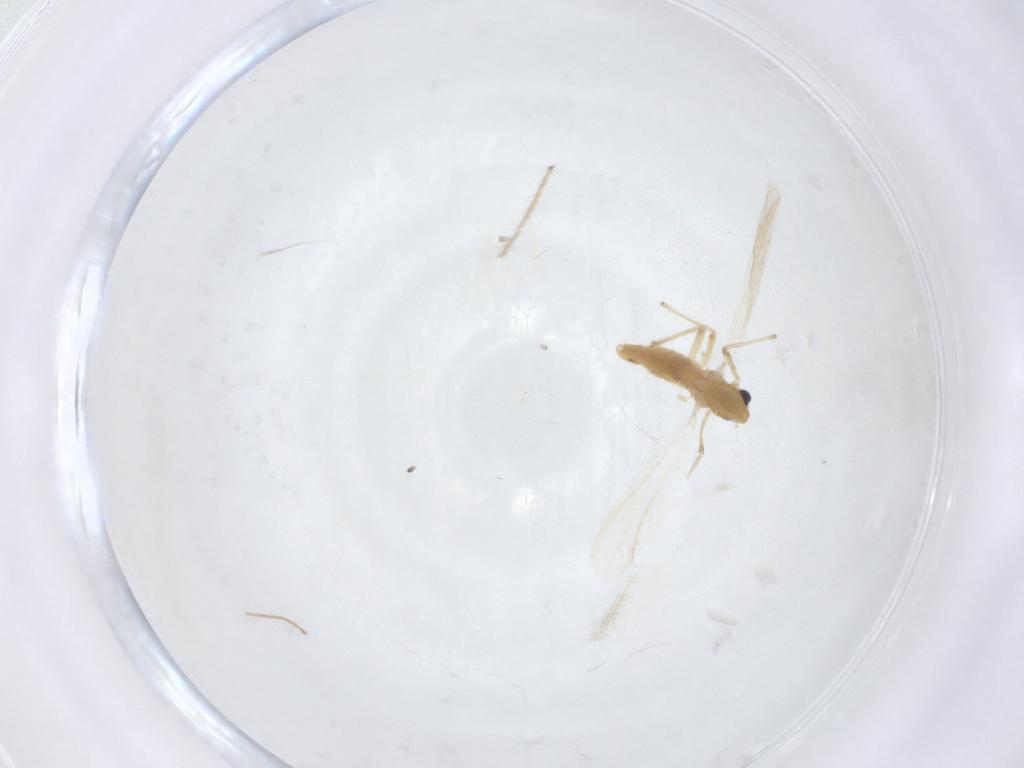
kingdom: Animalia
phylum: Arthropoda
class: Insecta
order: Diptera
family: Chironomidae
